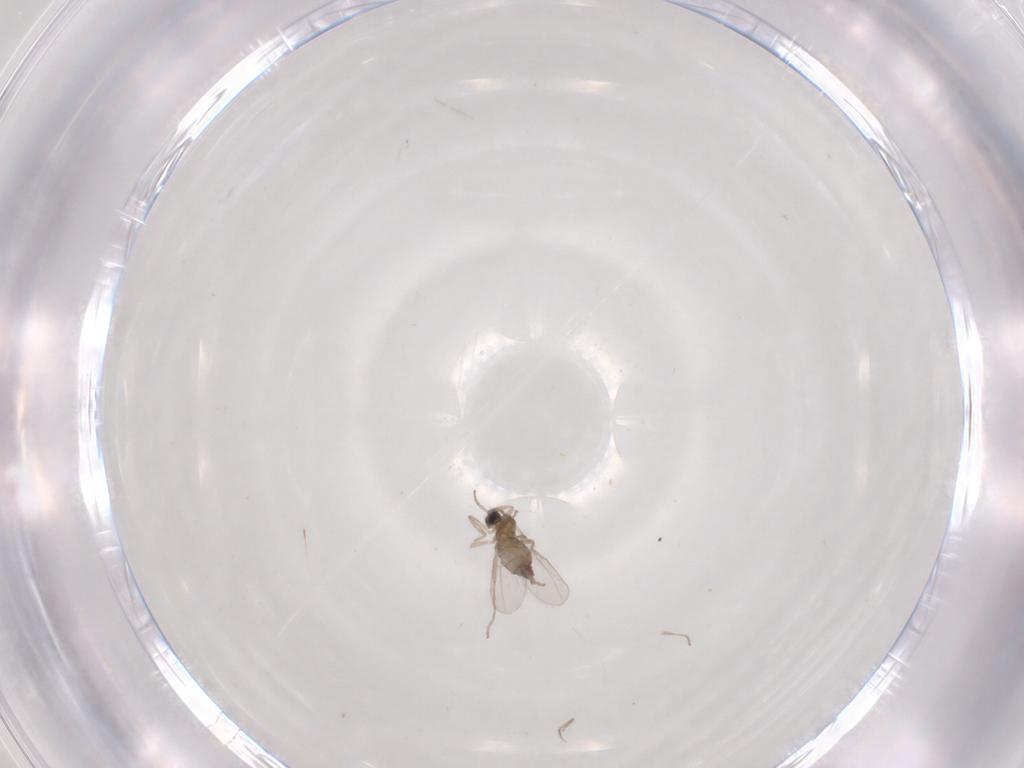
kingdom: Animalia
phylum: Arthropoda
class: Insecta
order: Diptera
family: Cecidomyiidae
